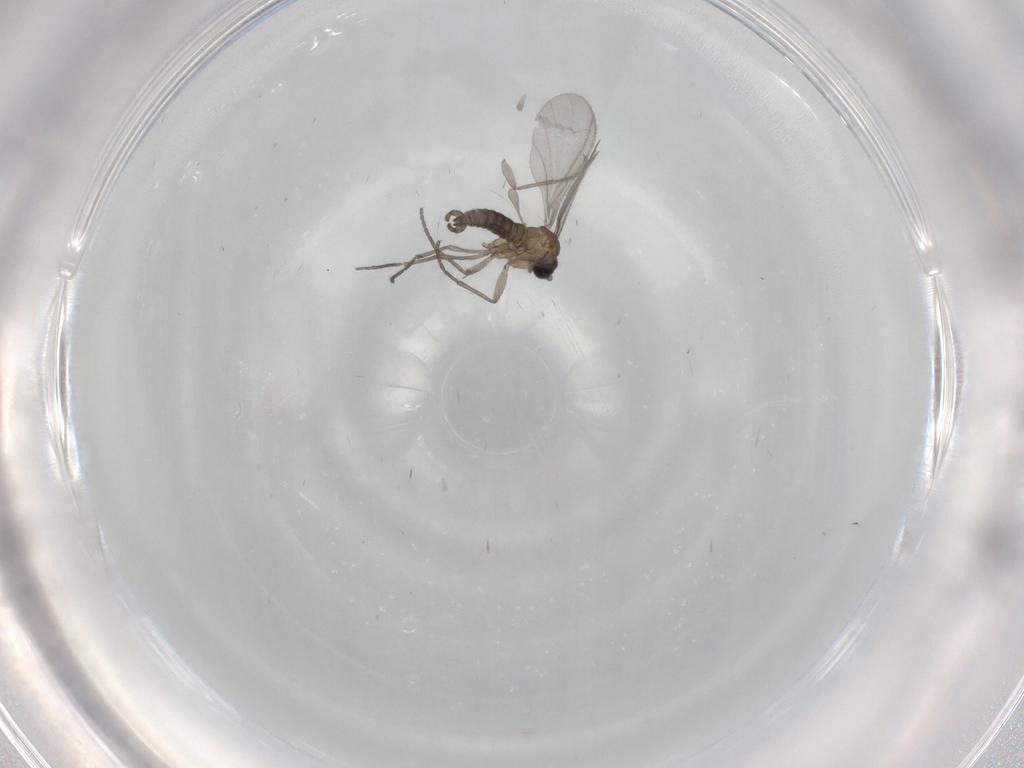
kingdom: Animalia
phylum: Arthropoda
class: Insecta
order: Diptera
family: Sciaridae
